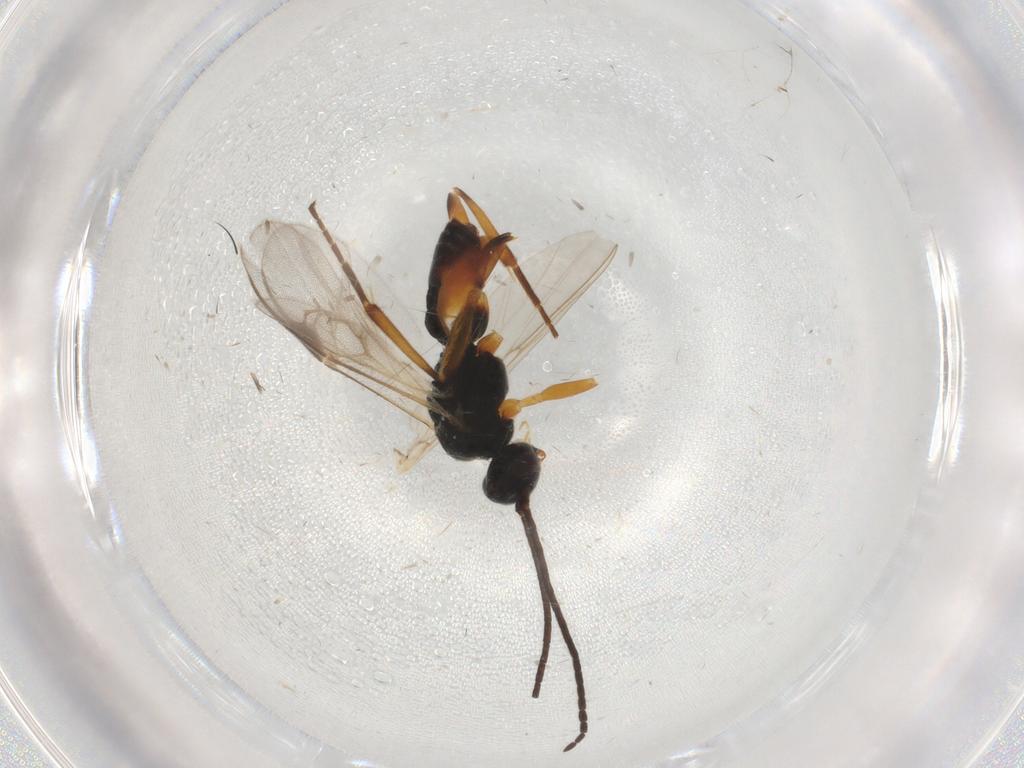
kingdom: Animalia
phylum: Arthropoda
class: Insecta
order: Hymenoptera
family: Braconidae
